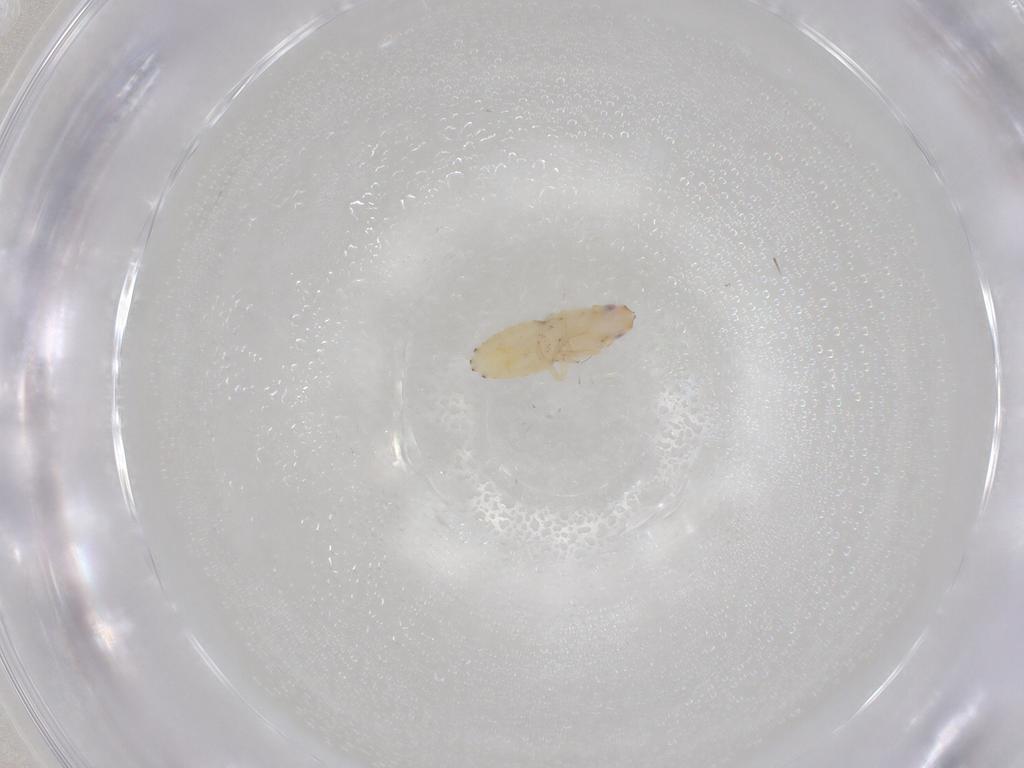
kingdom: Animalia
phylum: Arthropoda
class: Insecta
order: Hemiptera
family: Delphacidae
